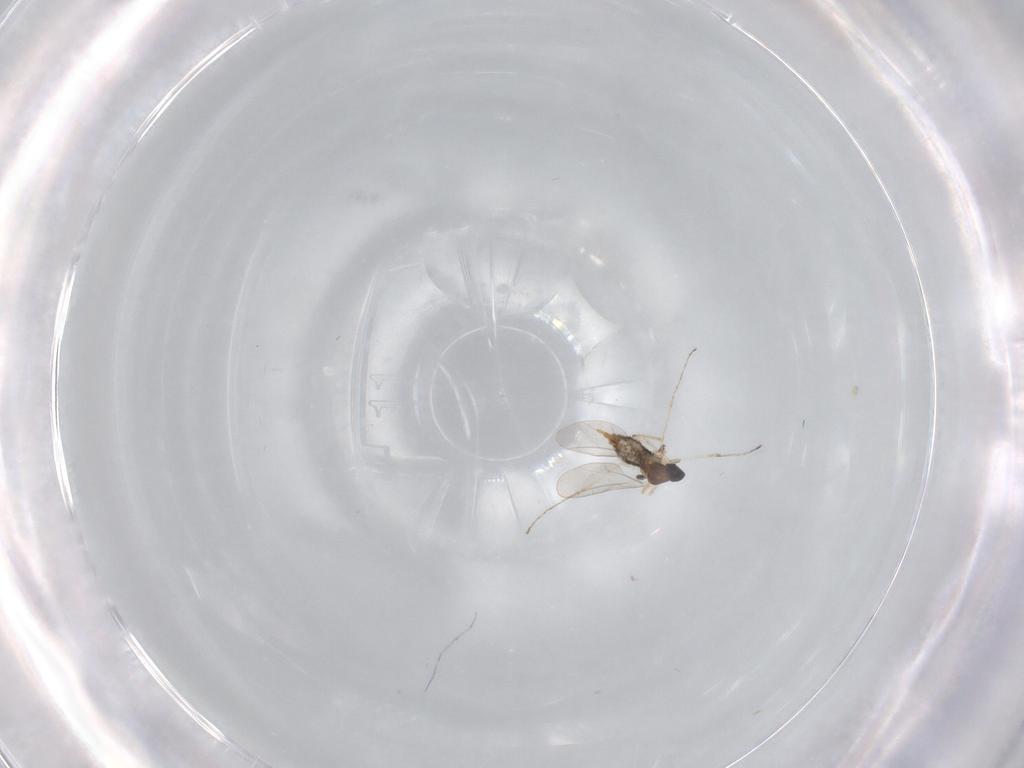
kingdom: Animalia
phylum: Arthropoda
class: Insecta
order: Diptera
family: Cecidomyiidae
